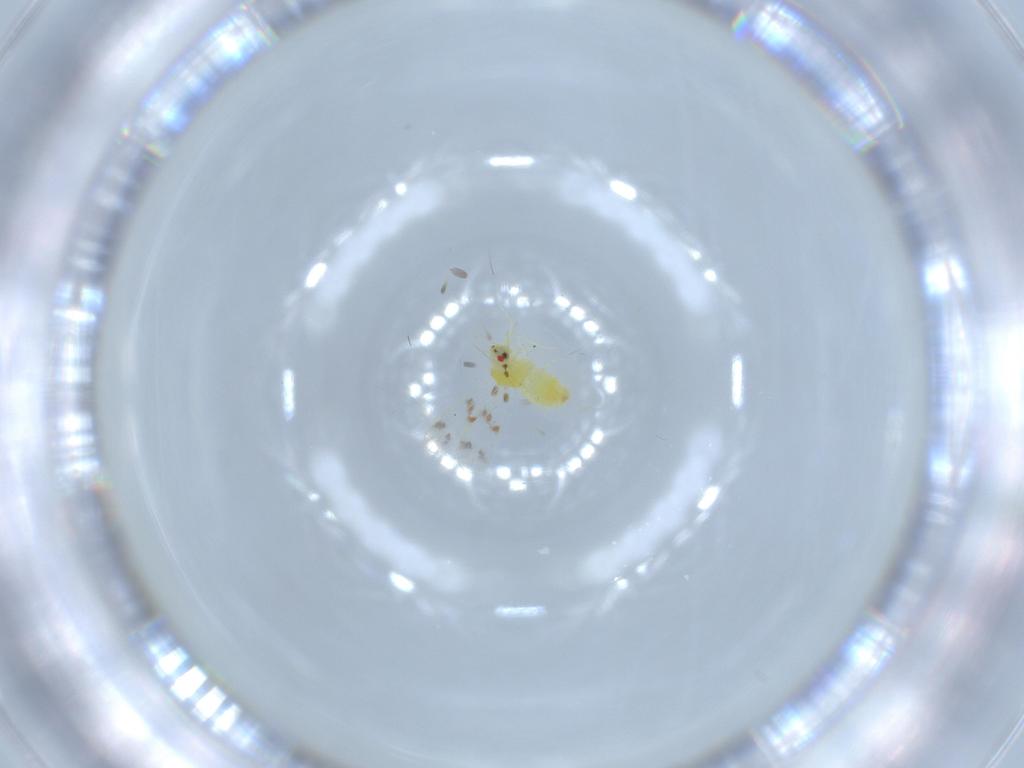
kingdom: Animalia
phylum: Arthropoda
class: Insecta
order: Hemiptera
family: Aleyrodidae
